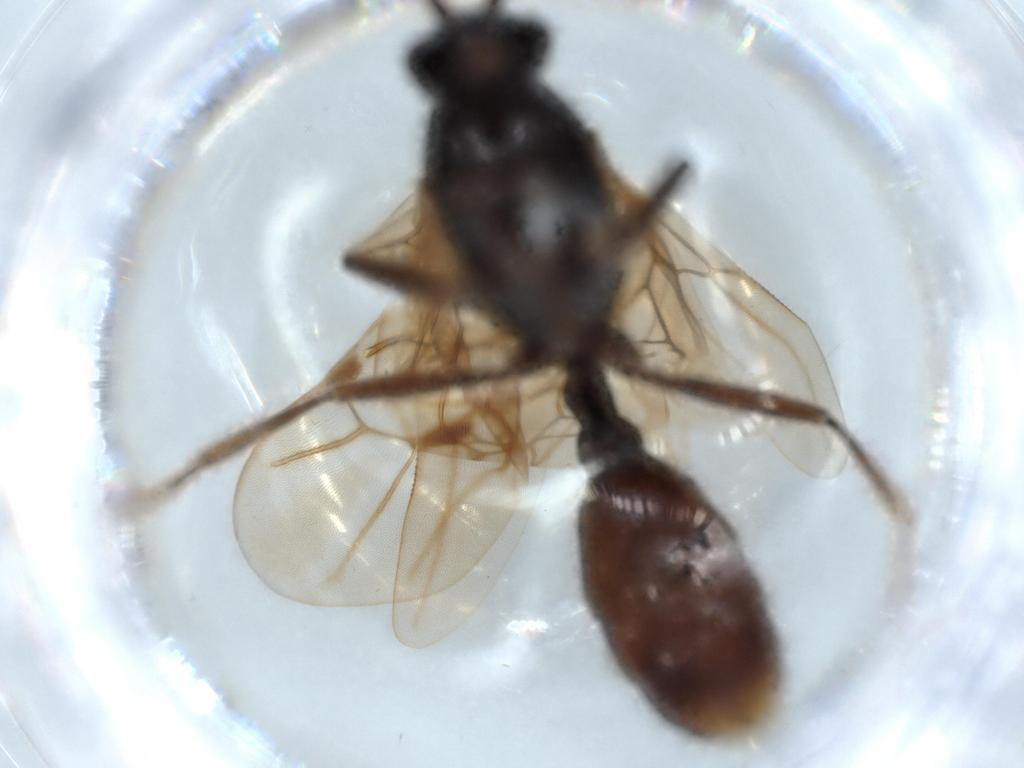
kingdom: Animalia
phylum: Arthropoda
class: Insecta
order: Hymenoptera
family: Formicidae
